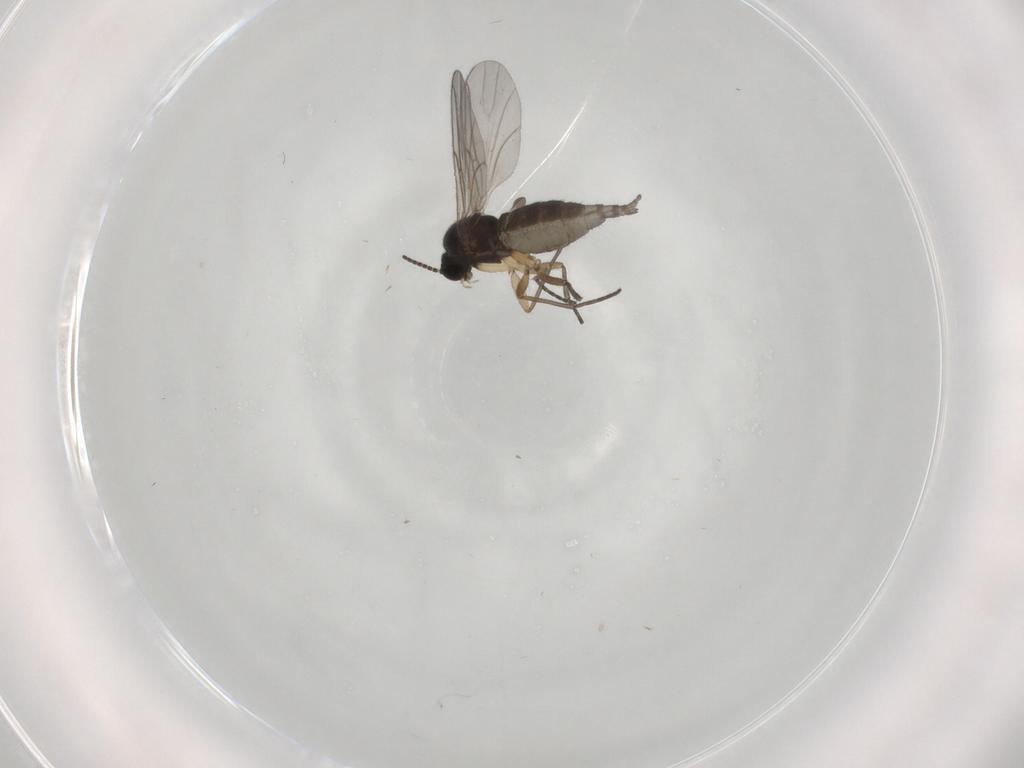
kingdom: Animalia
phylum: Arthropoda
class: Insecta
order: Diptera
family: Sciaridae
